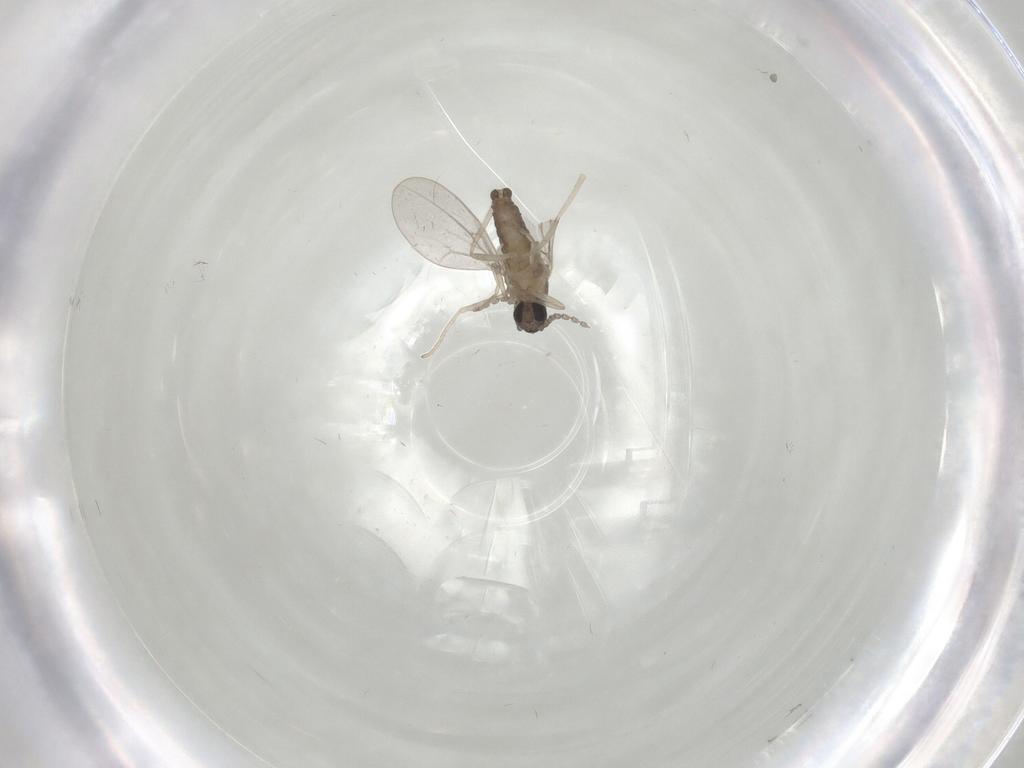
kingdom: Animalia
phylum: Arthropoda
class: Insecta
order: Diptera
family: Cecidomyiidae
